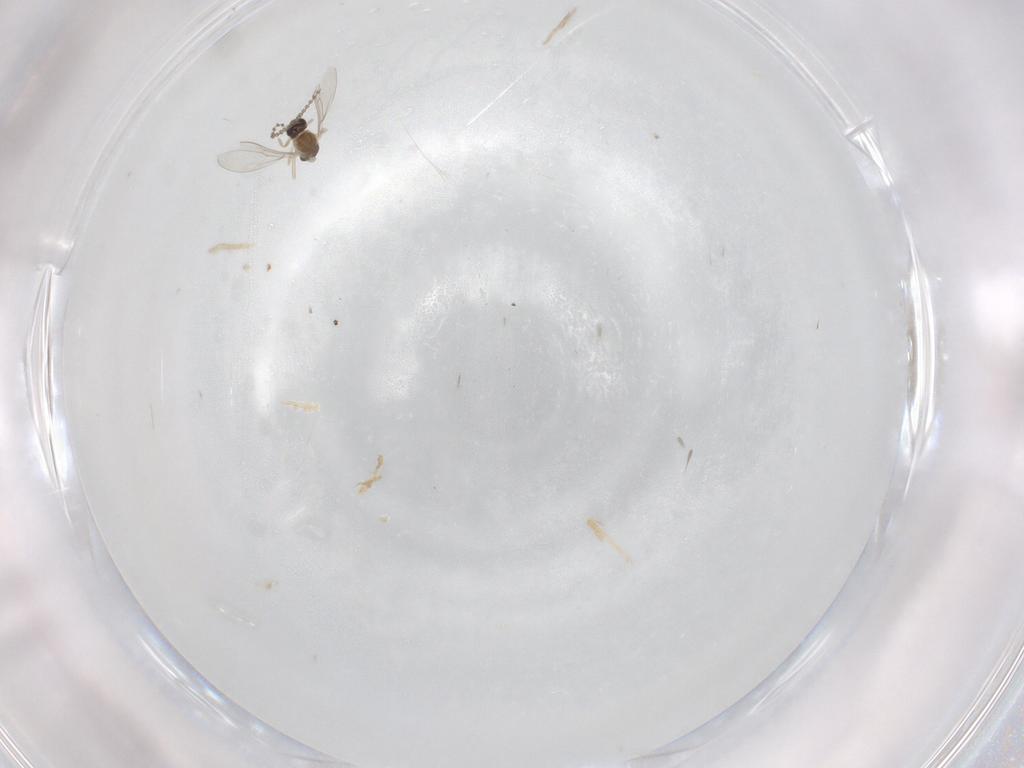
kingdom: Animalia
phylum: Arthropoda
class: Insecta
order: Diptera
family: Cecidomyiidae
